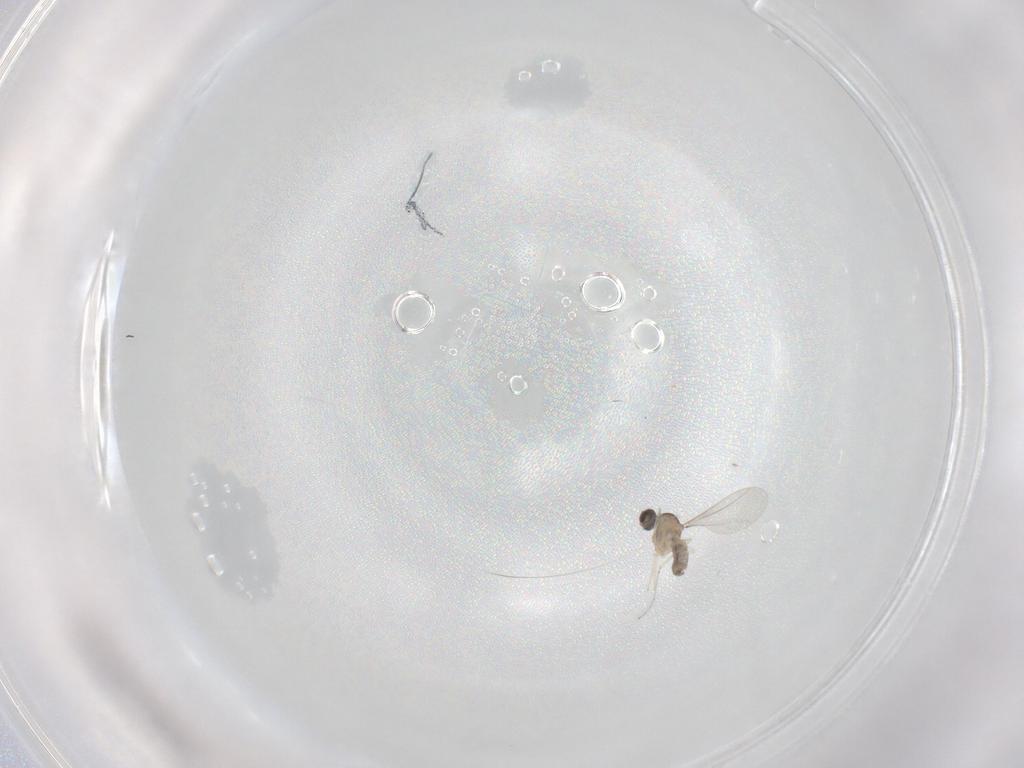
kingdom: Animalia
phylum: Arthropoda
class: Insecta
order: Diptera
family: Cecidomyiidae
